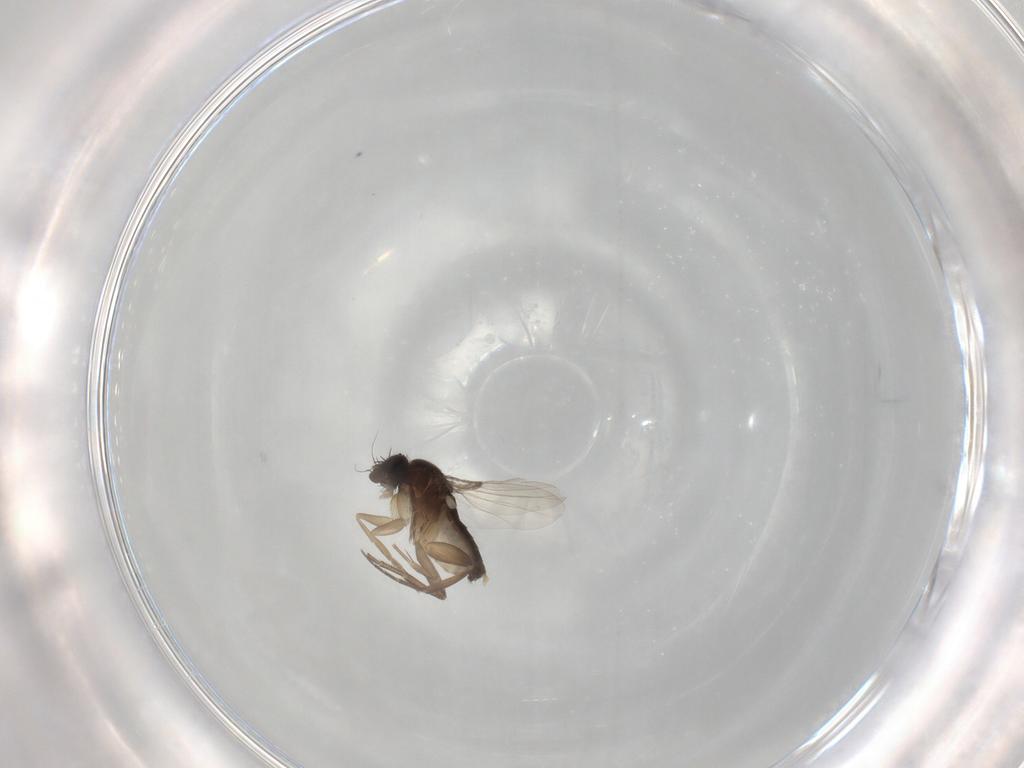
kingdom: Animalia
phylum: Arthropoda
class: Insecta
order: Diptera
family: Phoridae
